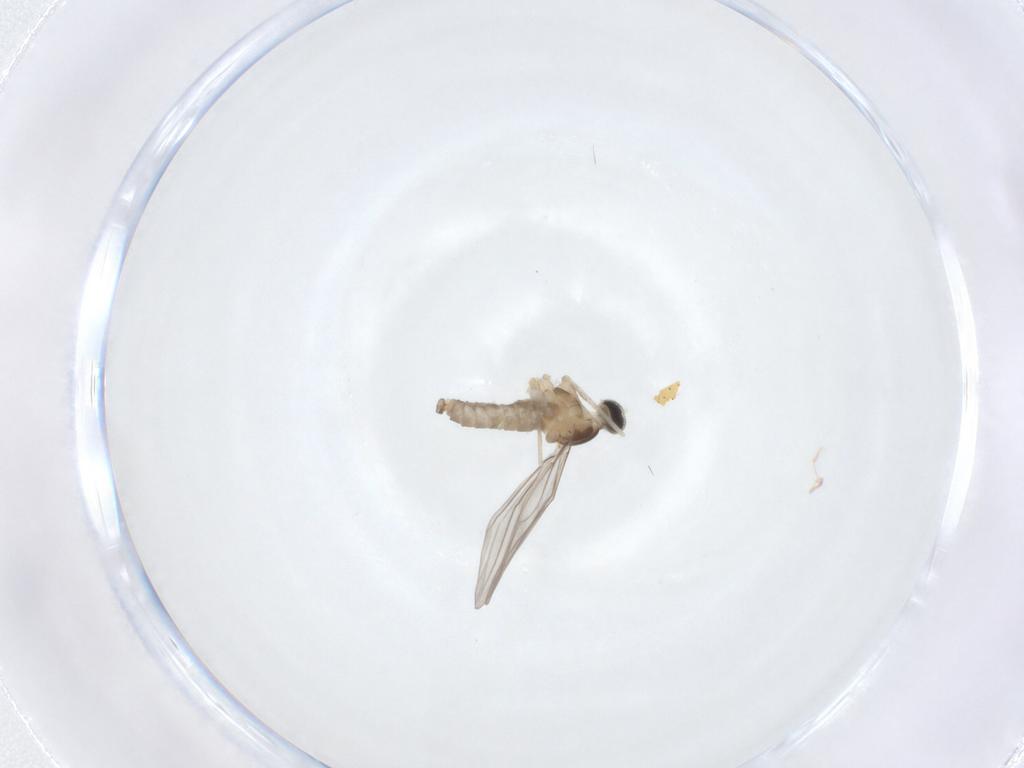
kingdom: Animalia
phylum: Arthropoda
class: Insecta
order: Diptera
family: Cecidomyiidae
